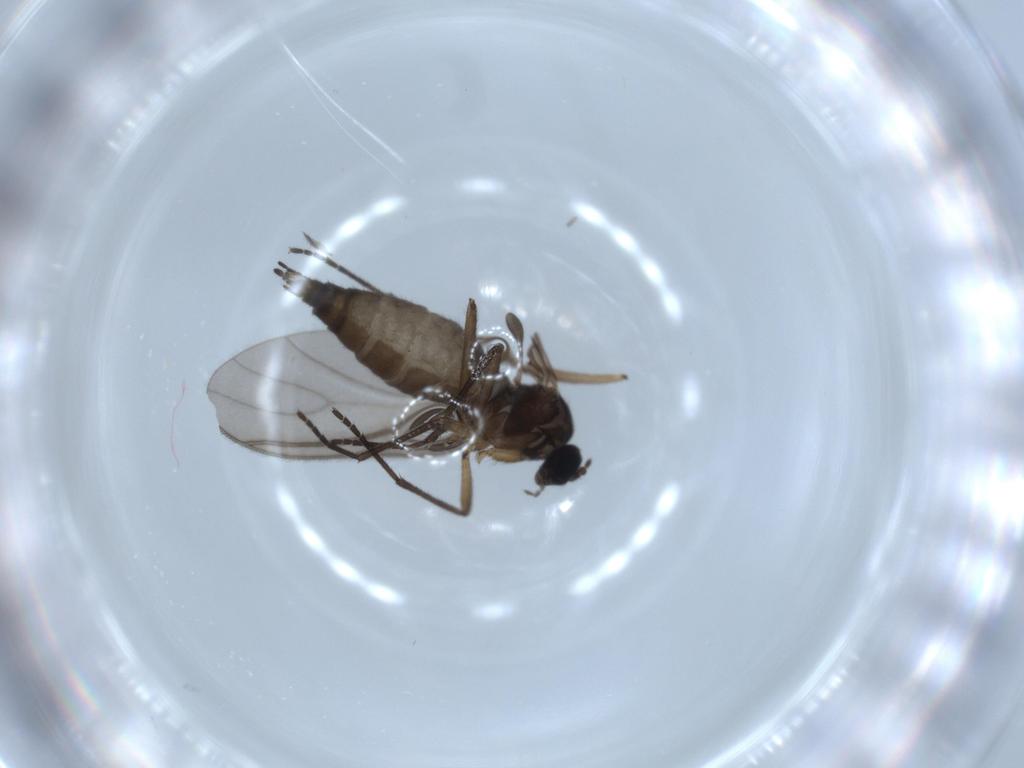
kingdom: Animalia
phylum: Arthropoda
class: Insecta
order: Diptera
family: Sciaridae
